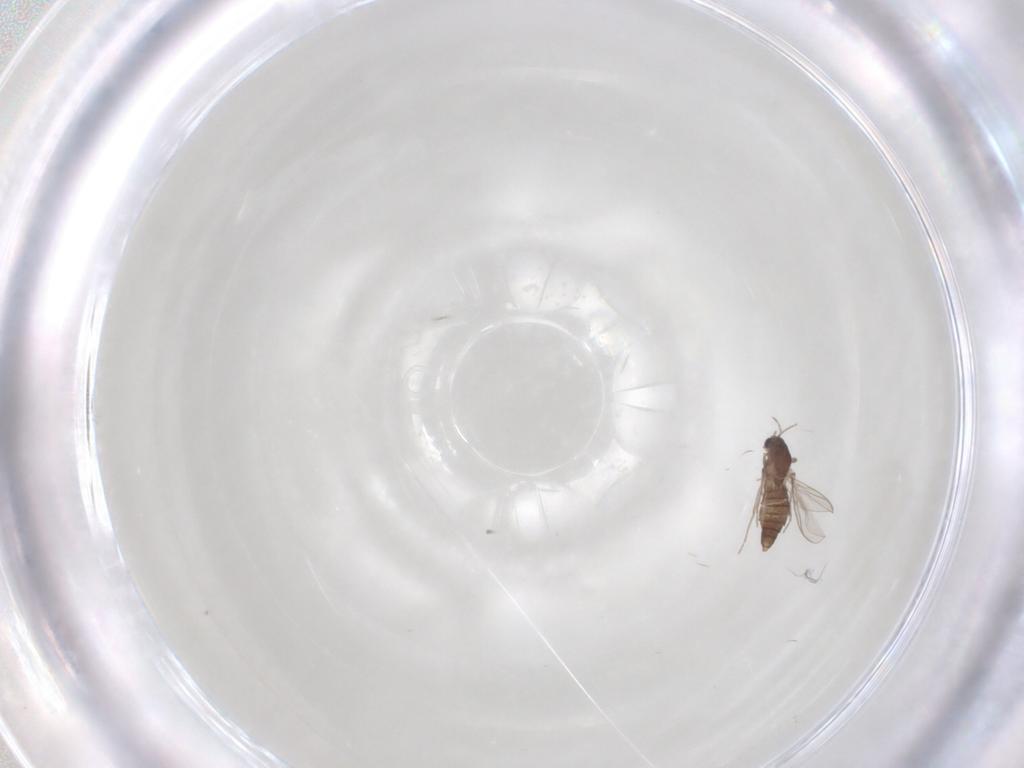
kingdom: Animalia
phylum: Arthropoda
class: Insecta
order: Diptera
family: Chironomidae
